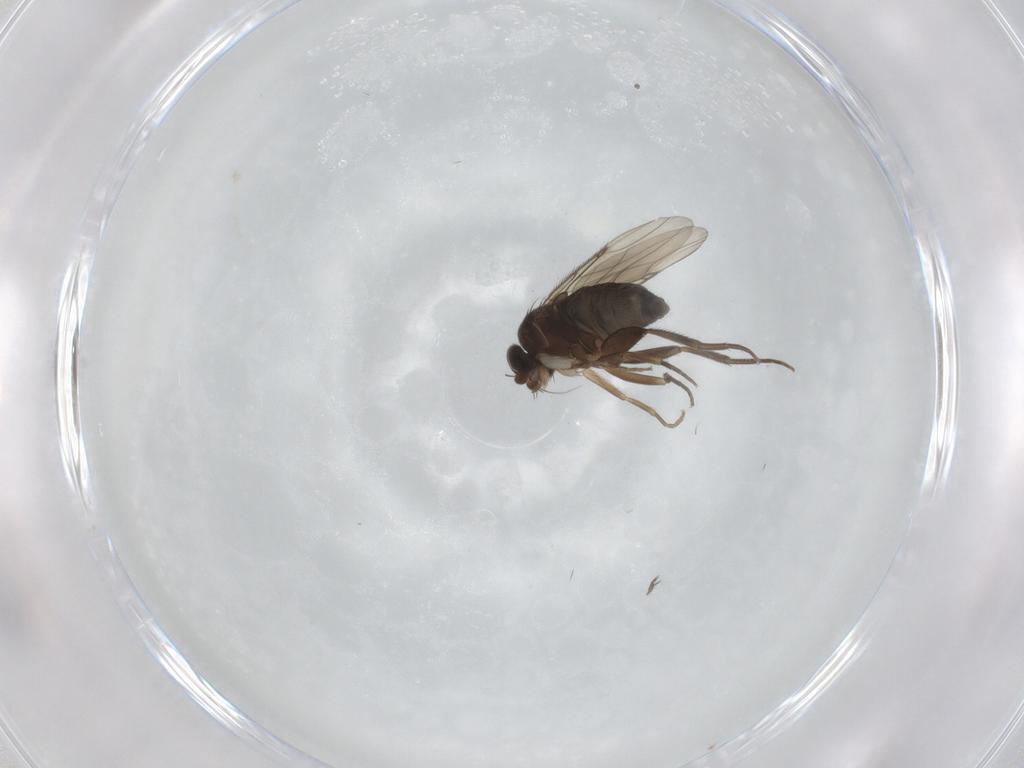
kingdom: Animalia
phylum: Arthropoda
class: Insecta
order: Diptera
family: Phoridae
